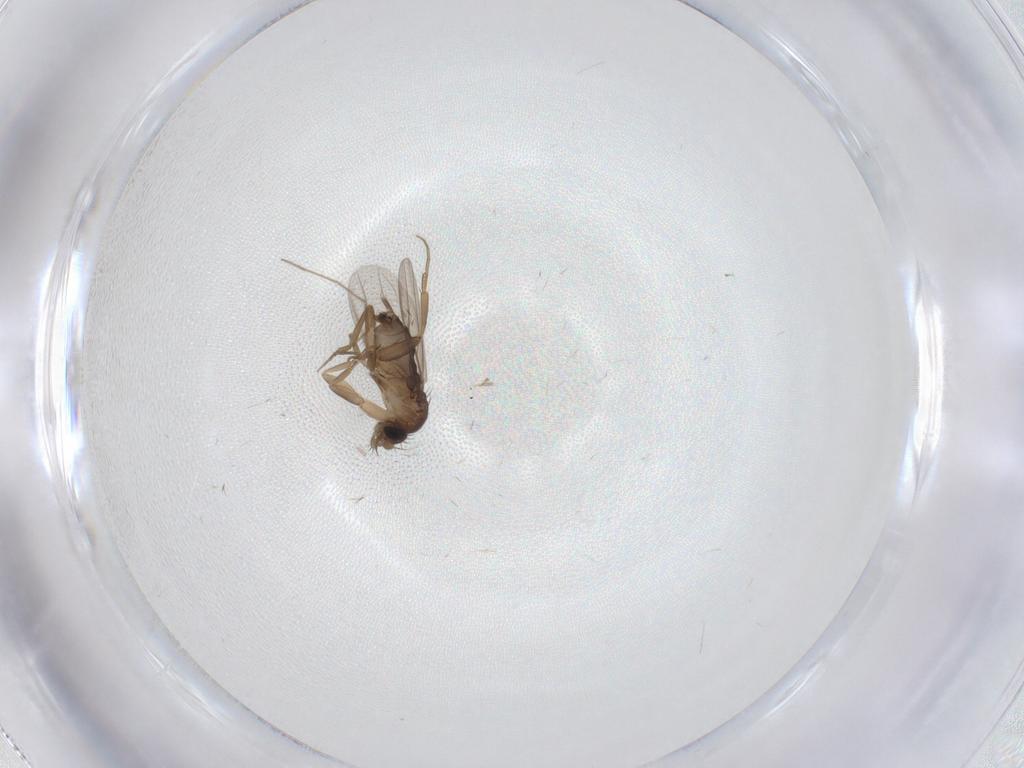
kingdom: Animalia
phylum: Arthropoda
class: Insecta
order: Diptera
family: Chironomidae
